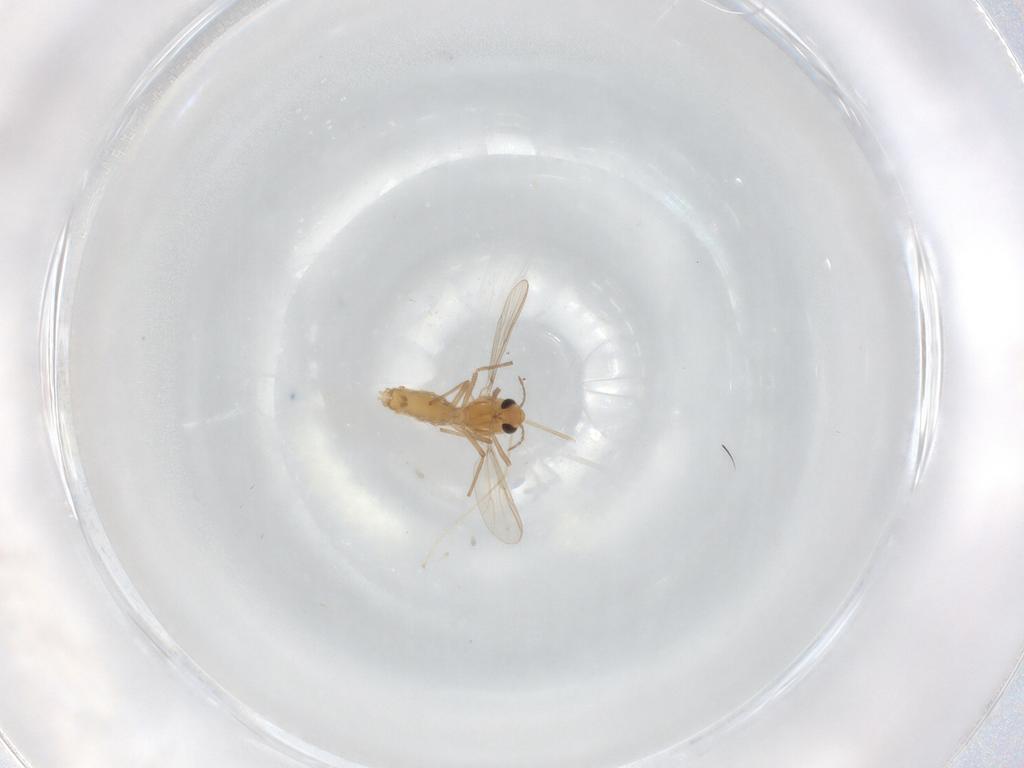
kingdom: Animalia
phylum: Arthropoda
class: Insecta
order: Diptera
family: Cecidomyiidae
